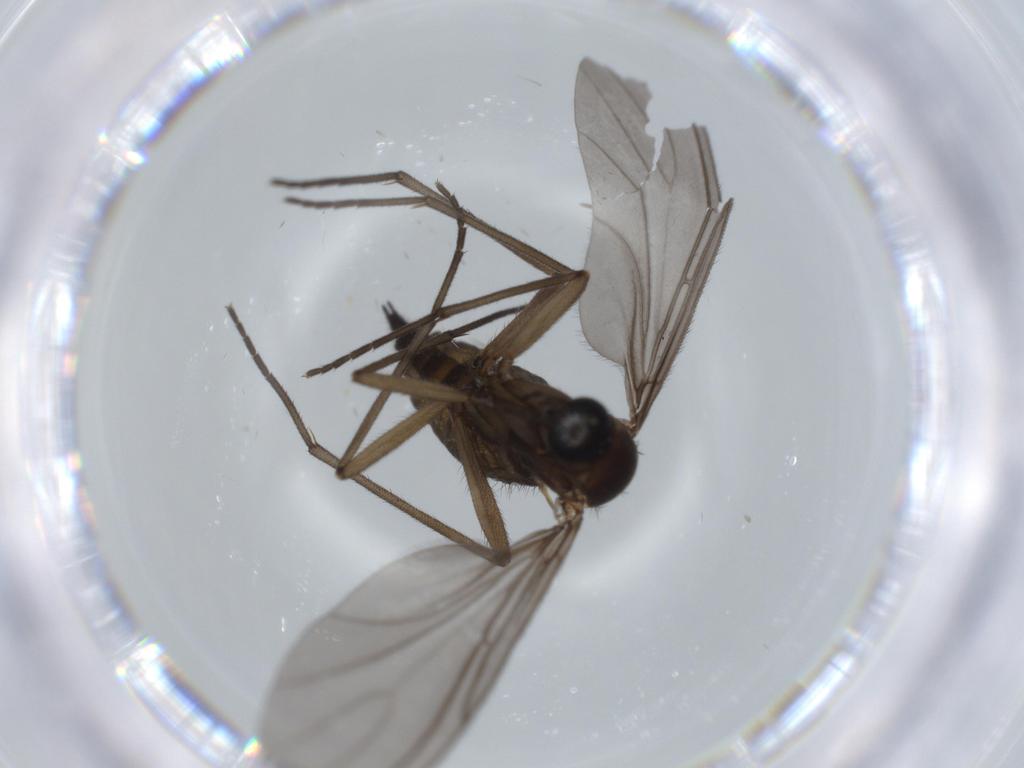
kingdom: Animalia
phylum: Arthropoda
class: Insecta
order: Diptera
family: Sciaridae
